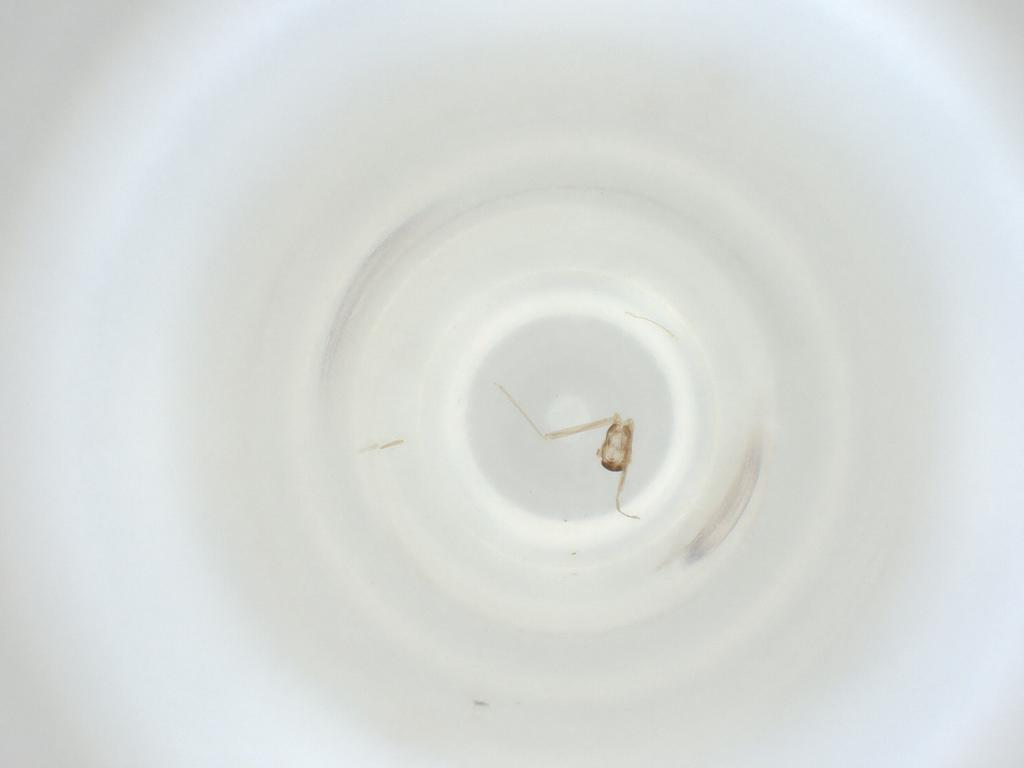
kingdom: Animalia
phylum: Arthropoda
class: Insecta
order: Diptera
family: Cecidomyiidae
